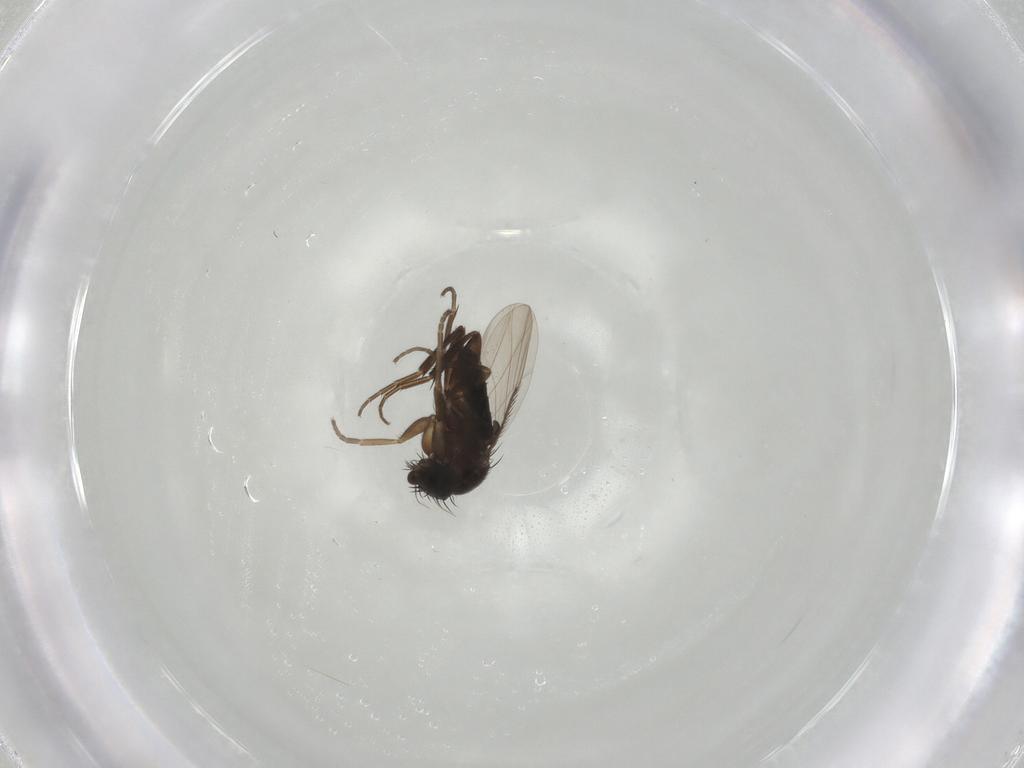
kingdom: Animalia
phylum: Arthropoda
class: Insecta
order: Diptera
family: Phoridae
